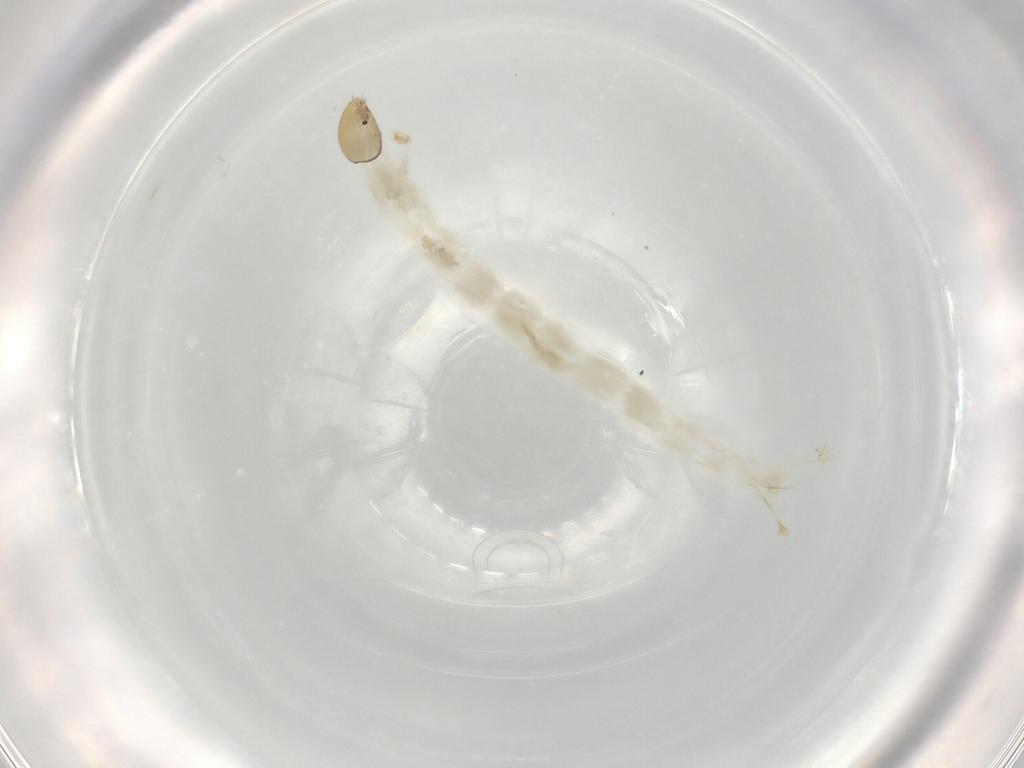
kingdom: Animalia
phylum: Arthropoda
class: Insecta
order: Diptera
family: Chironomidae
